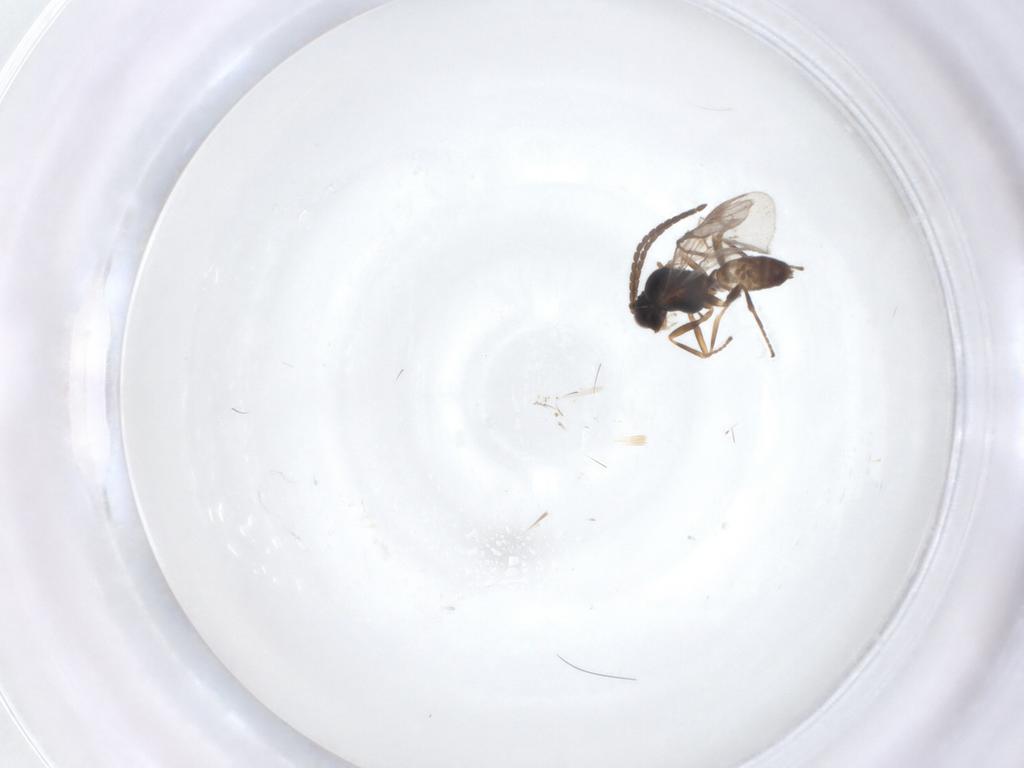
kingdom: Animalia
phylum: Arthropoda
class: Insecta
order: Hymenoptera
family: Braconidae
